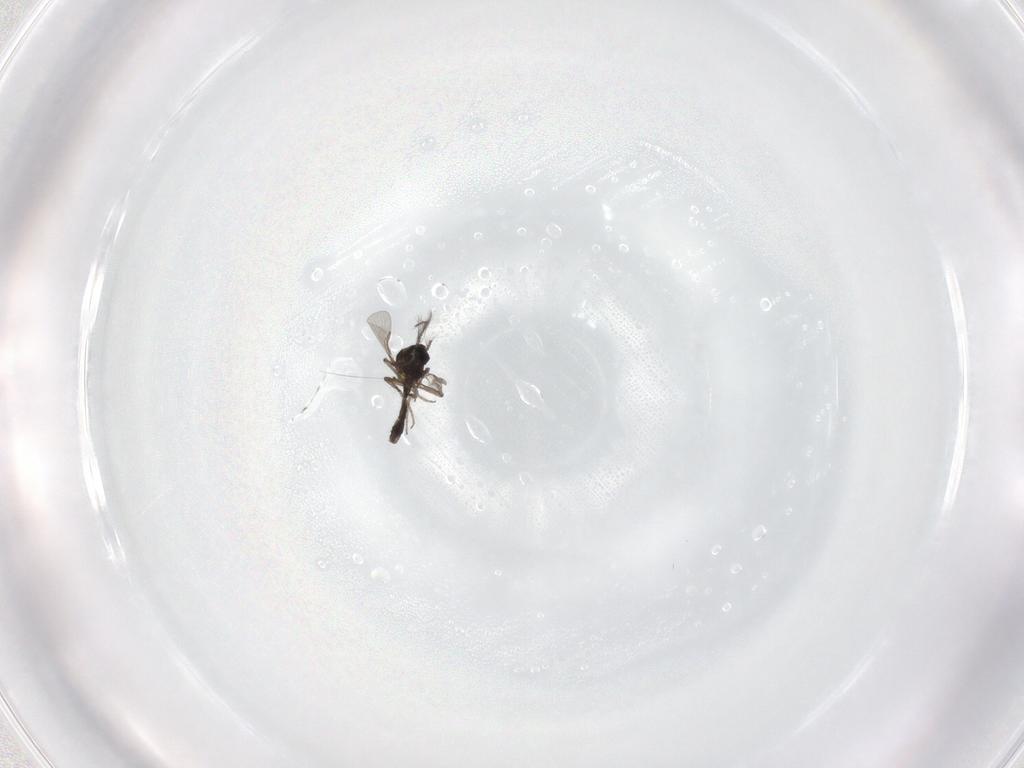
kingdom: Animalia
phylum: Arthropoda
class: Insecta
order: Diptera
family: Ceratopogonidae
